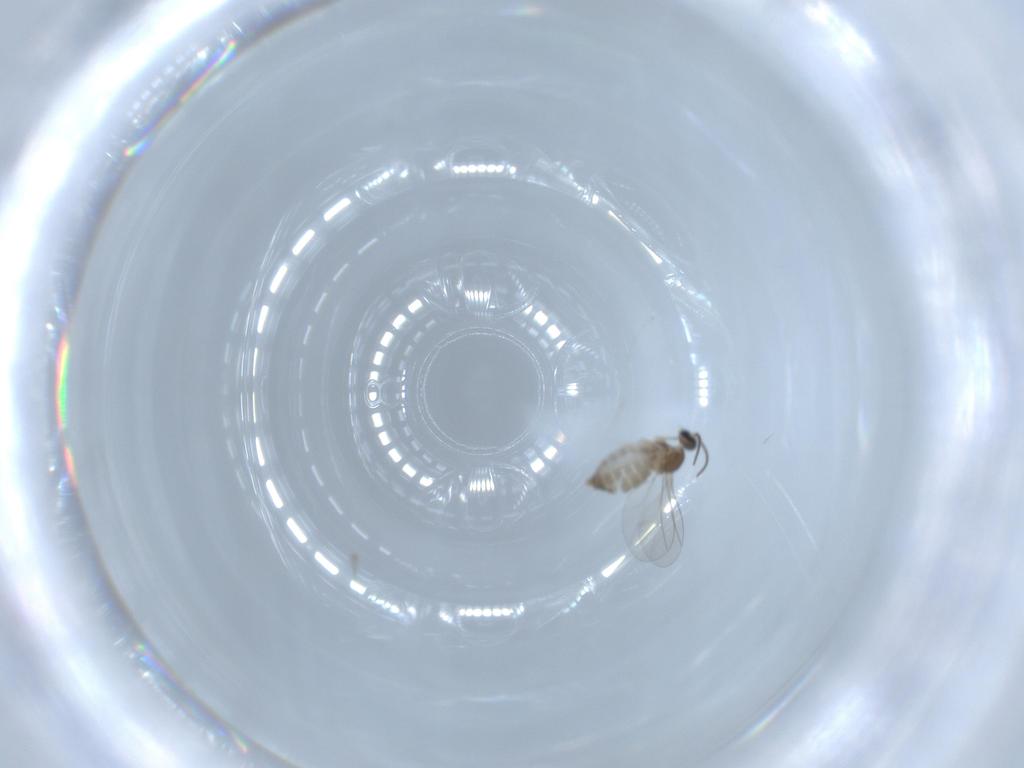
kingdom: Animalia
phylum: Arthropoda
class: Insecta
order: Diptera
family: Cecidomyiidae
